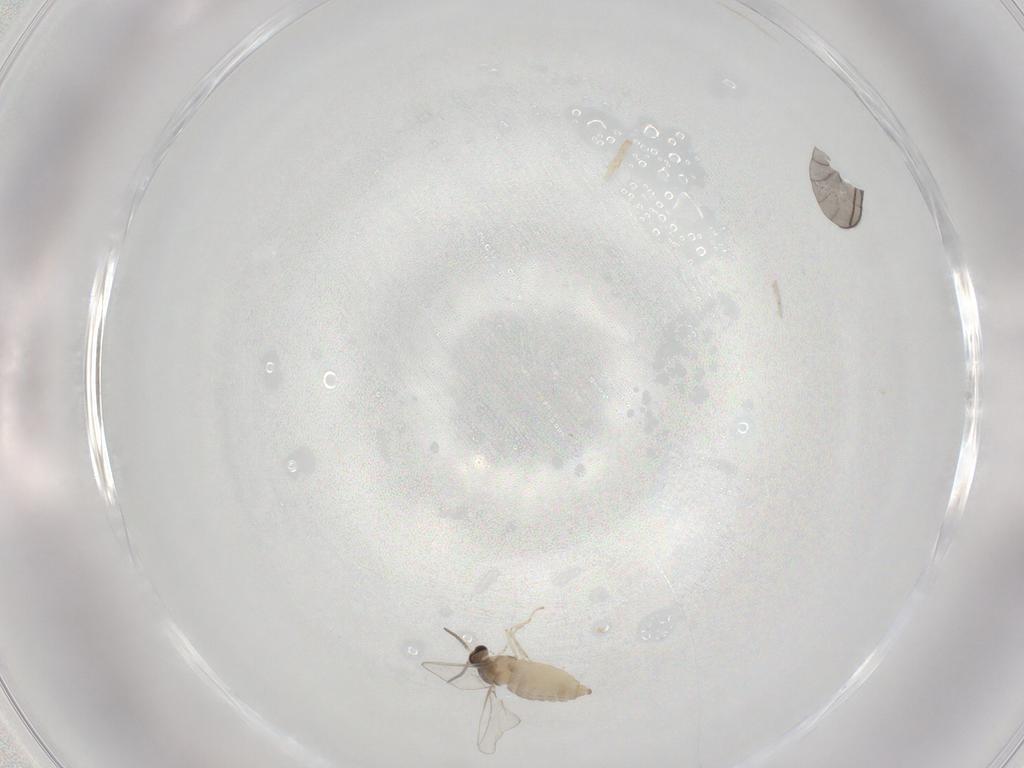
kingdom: Animalia
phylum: Arthropoda
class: Insecta
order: Diptera
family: Cecidomyiidae
